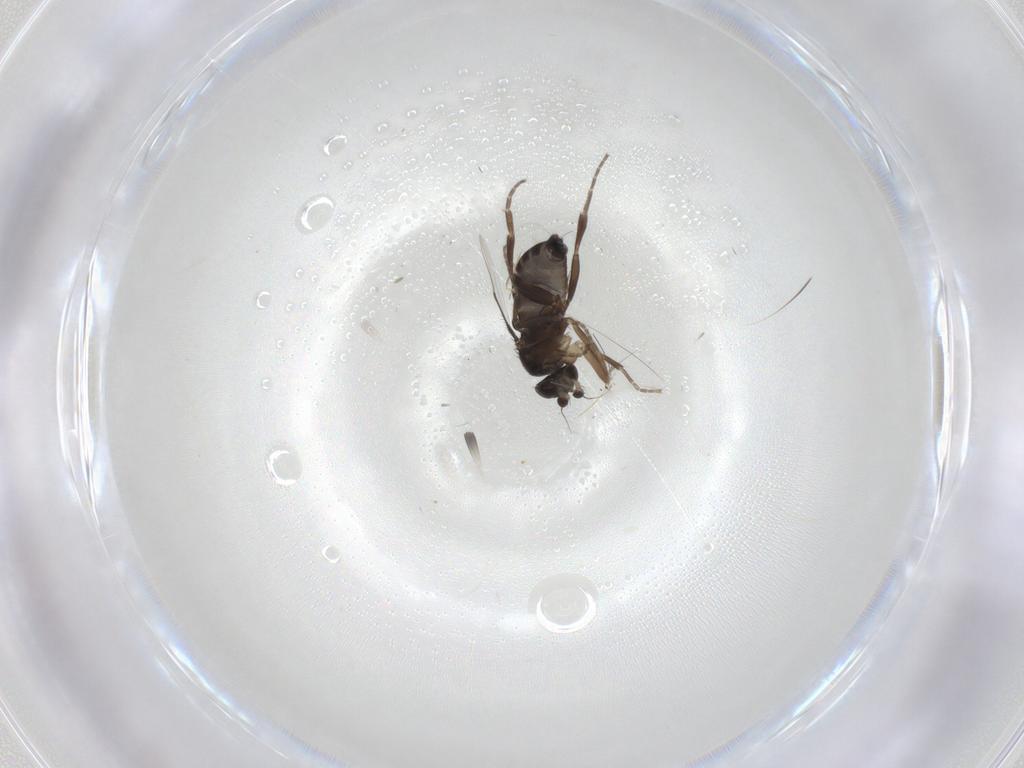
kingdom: Animalia
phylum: Arthropoda
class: Insecta
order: Diptera
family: Phoridae
